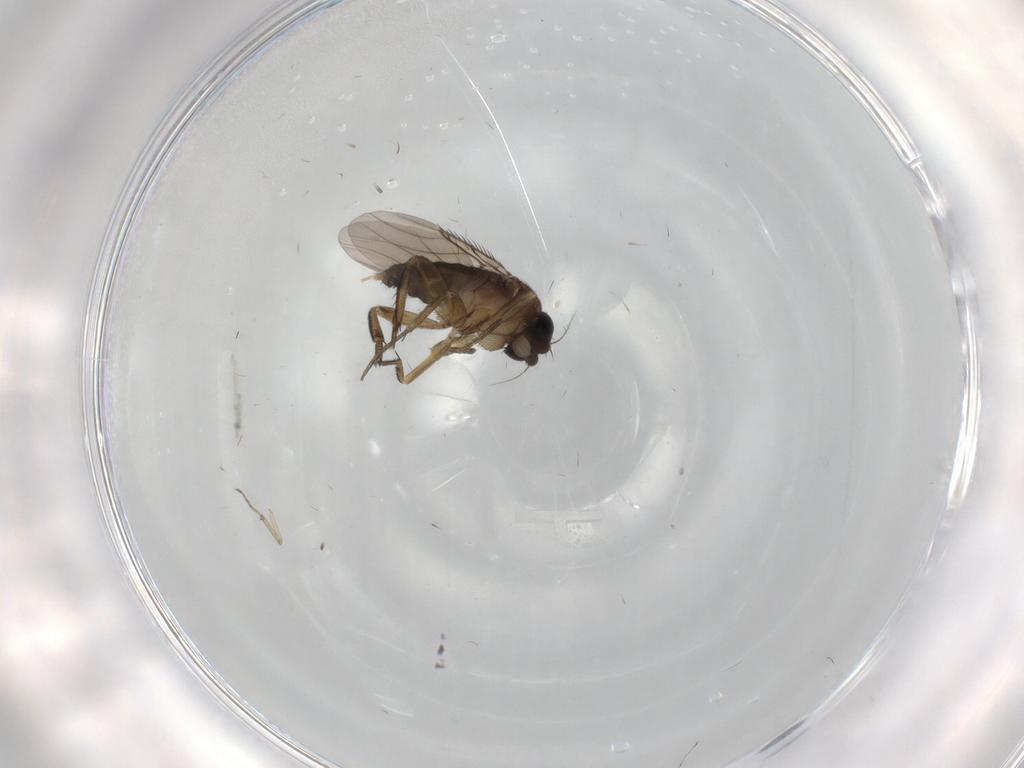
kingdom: Animalia
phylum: Arthropoda
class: Insecta
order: Diptera
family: Phoridae
